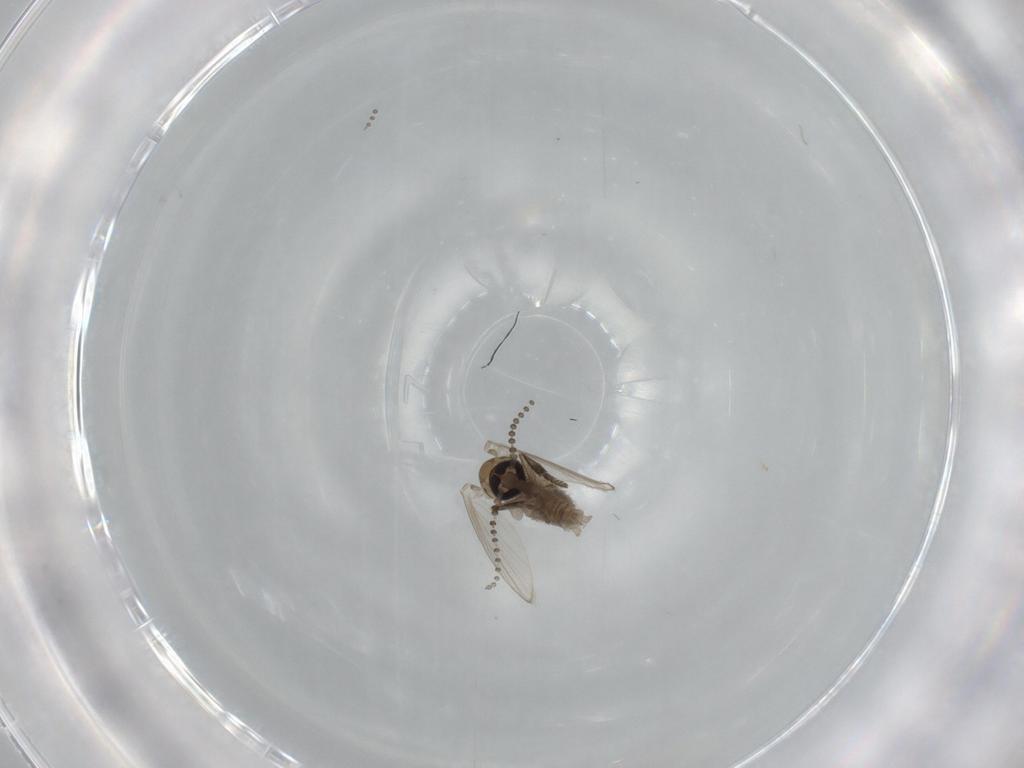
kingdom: Animalia
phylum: Arthropoda
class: Insecta
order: Diptera
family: Psychodidae
